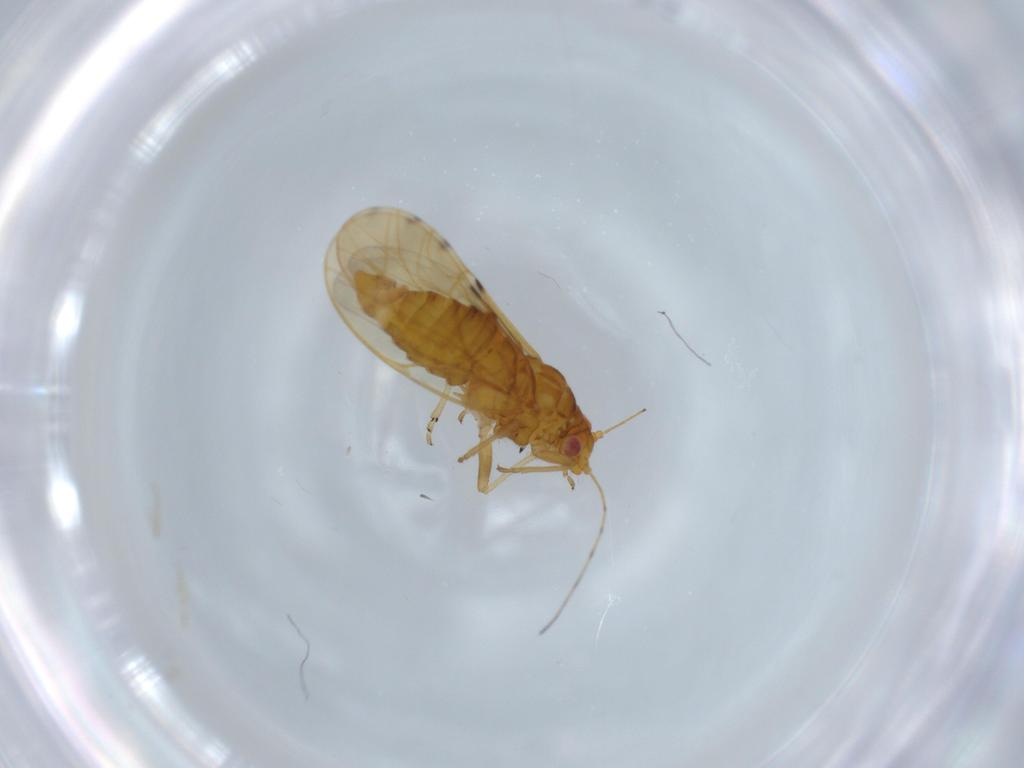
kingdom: Animalia
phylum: Arthropoda
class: Insecta
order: Hemiptera
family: Psylloidea_incertae_sedis
